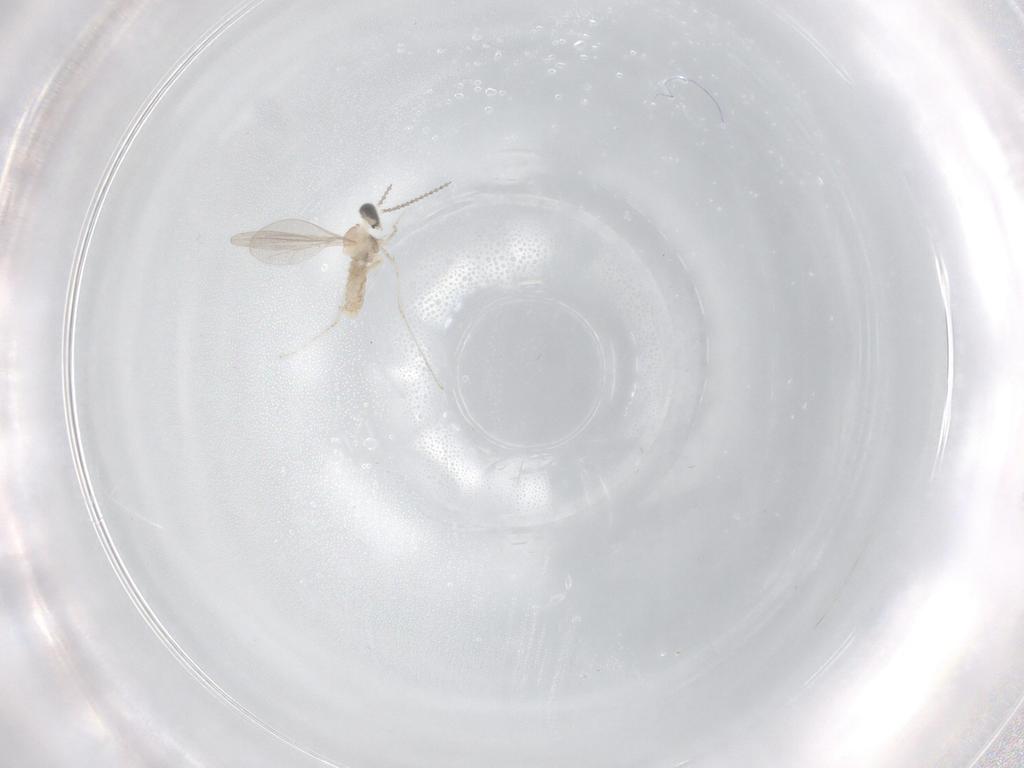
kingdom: Animalia
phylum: Arthropoda
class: Insecta
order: Diptera
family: Cecidomyiidae
